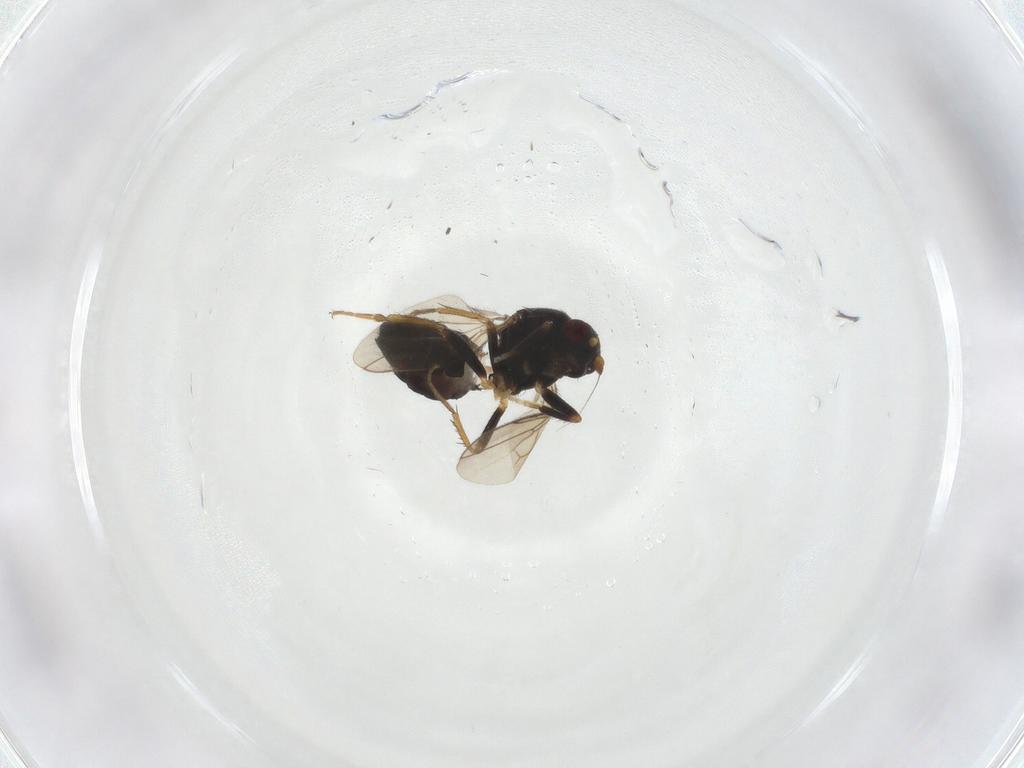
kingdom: Animalia
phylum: Arthropoda
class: Insecta
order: Diptera
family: Sphaeroceridae
